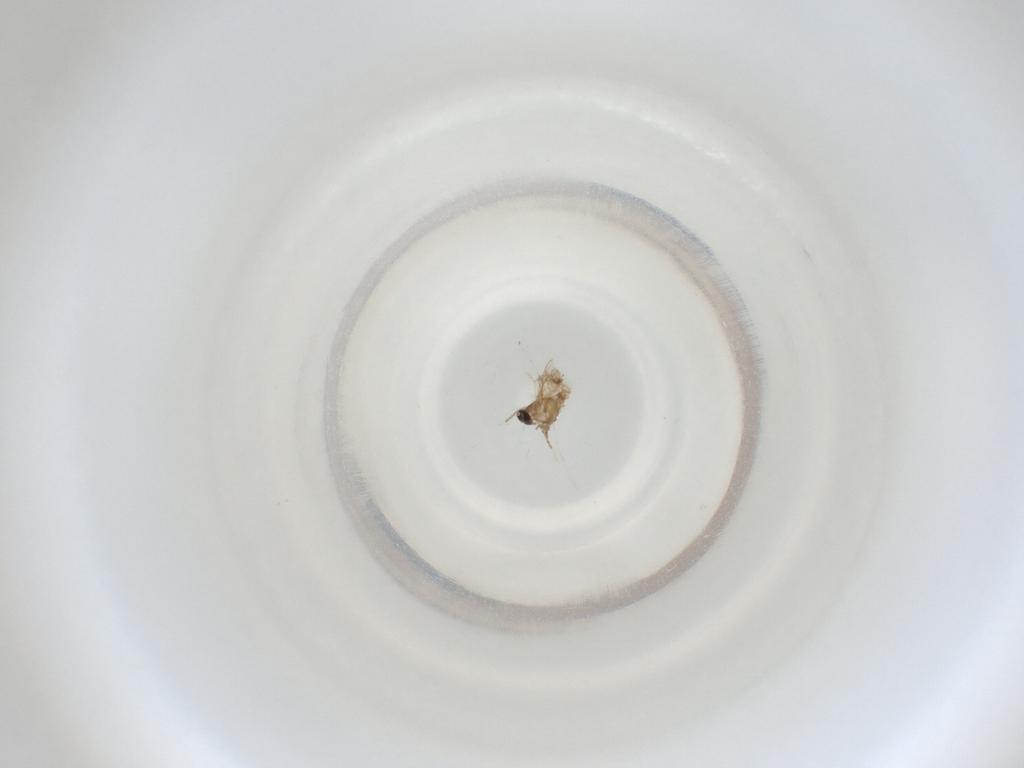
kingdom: Animalia
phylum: Arthropoda
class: Insecta
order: Diptera
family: Cecidomyiidae
